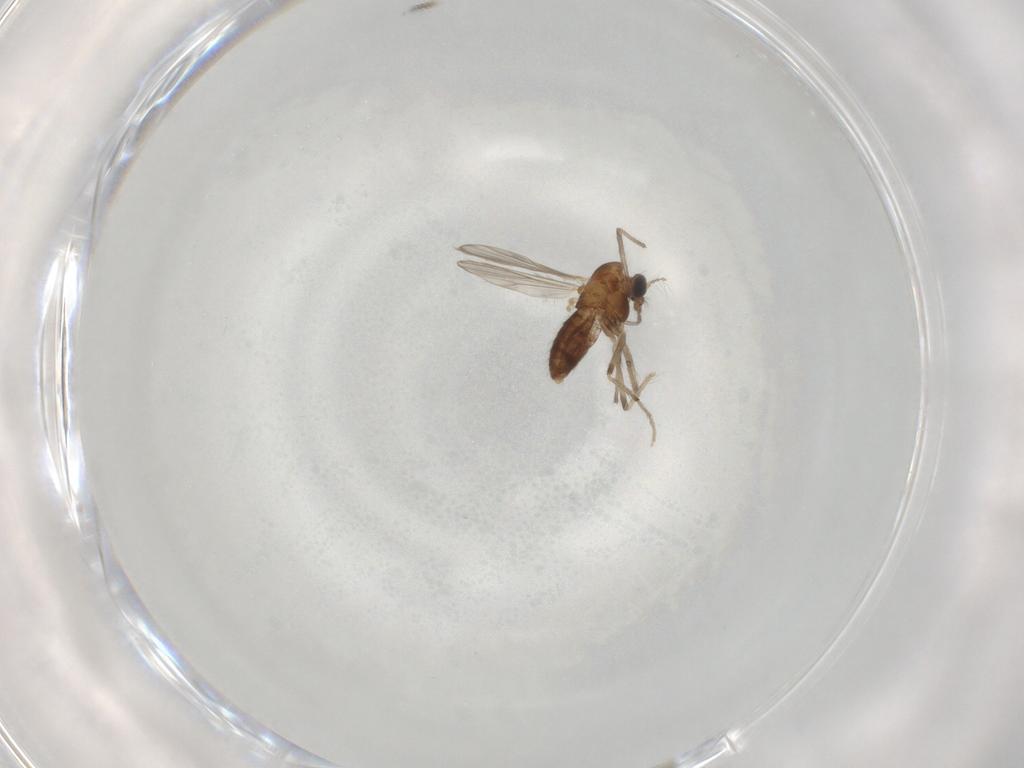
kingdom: Animalia
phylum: Arthropoda
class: Insecta
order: Diptera
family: Chironomidae
